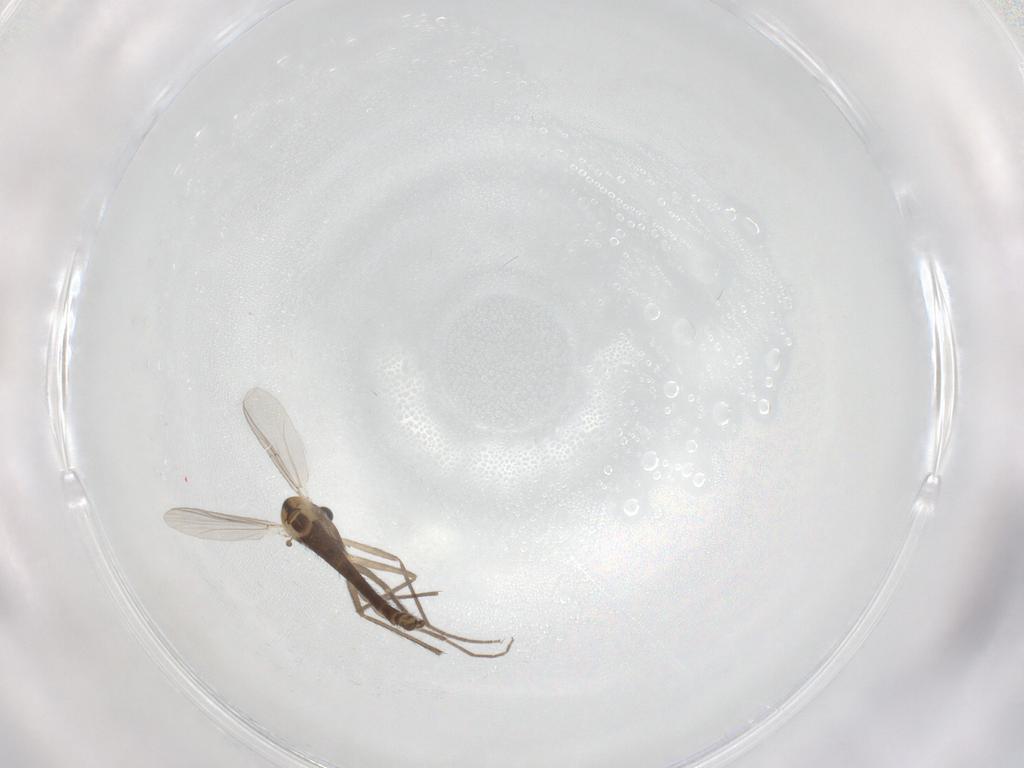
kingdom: Animalia
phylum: Arthropoda
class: Insecta
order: Diptera
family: Chironomidae
